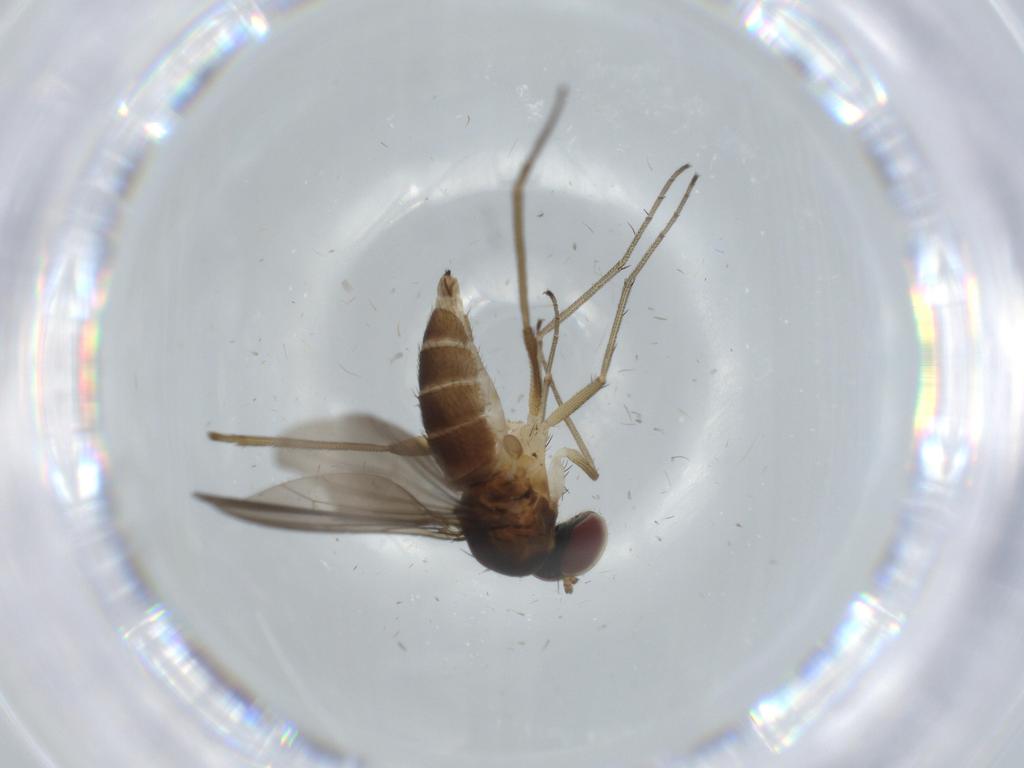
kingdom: Animalia
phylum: Arthropoda
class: Insecta
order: Diptera
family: Dolichopodidae
